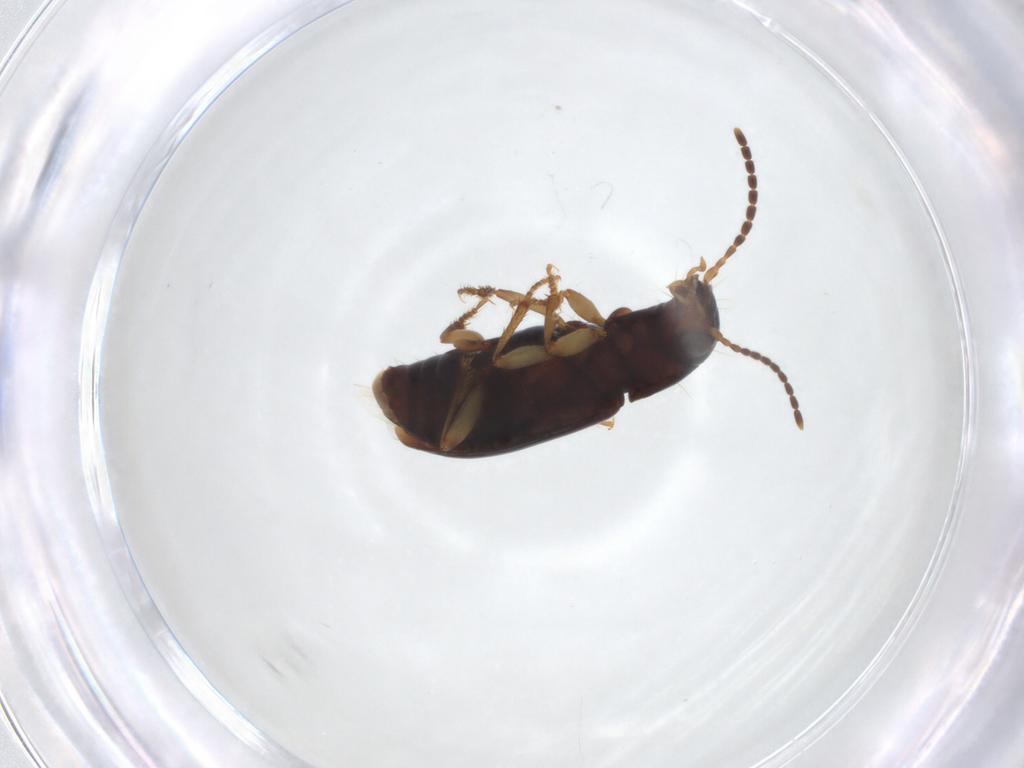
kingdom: Animalia
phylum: Arthropoda
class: Insecta
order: Coleoptera
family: Carabidae
